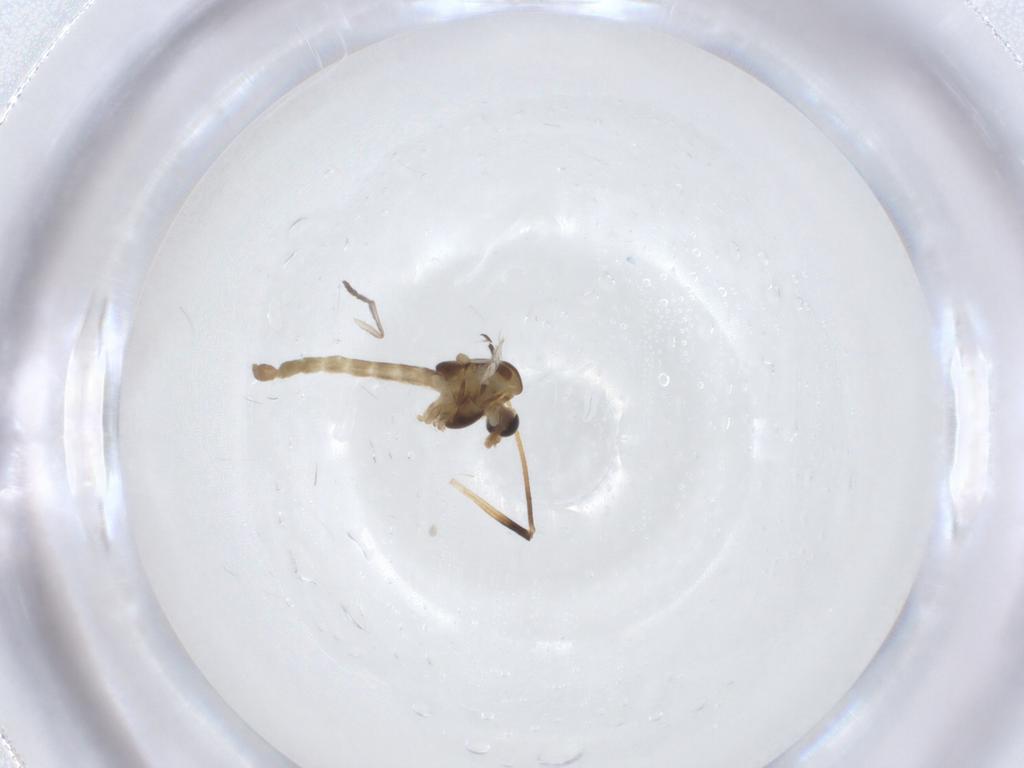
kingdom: Animalia
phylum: Arthropoda
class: Insecta
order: Diptera
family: Chironomidae
